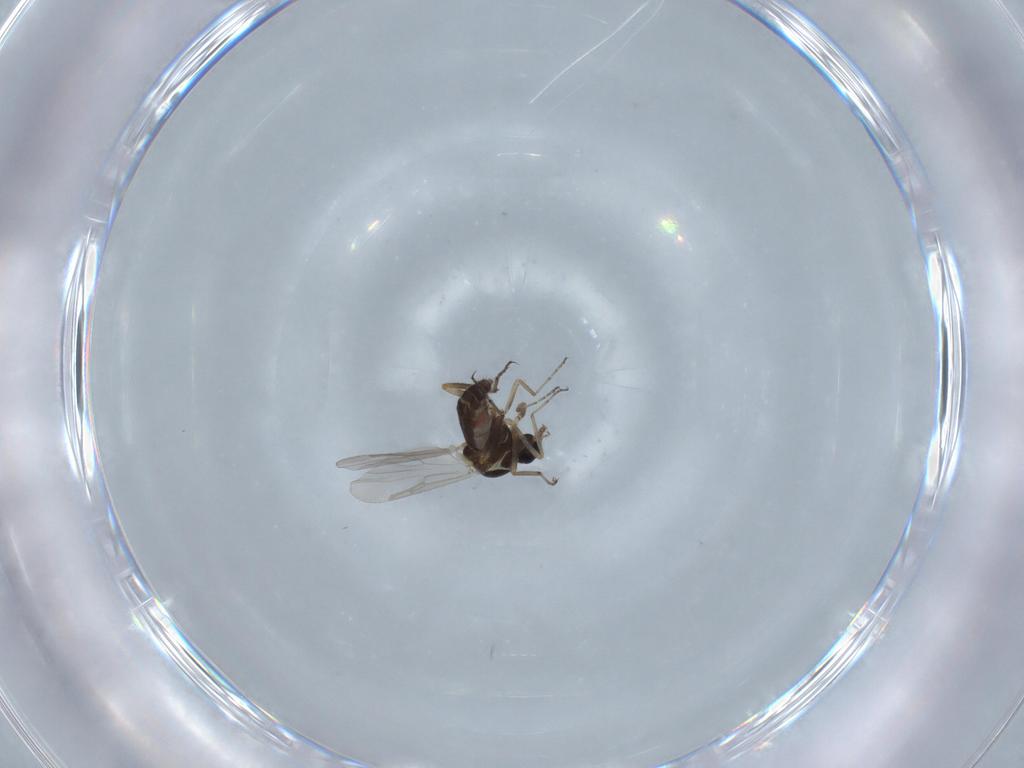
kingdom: Animalia
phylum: Arthropoda
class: Insecta
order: Diptera
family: Ceratopogonidae
